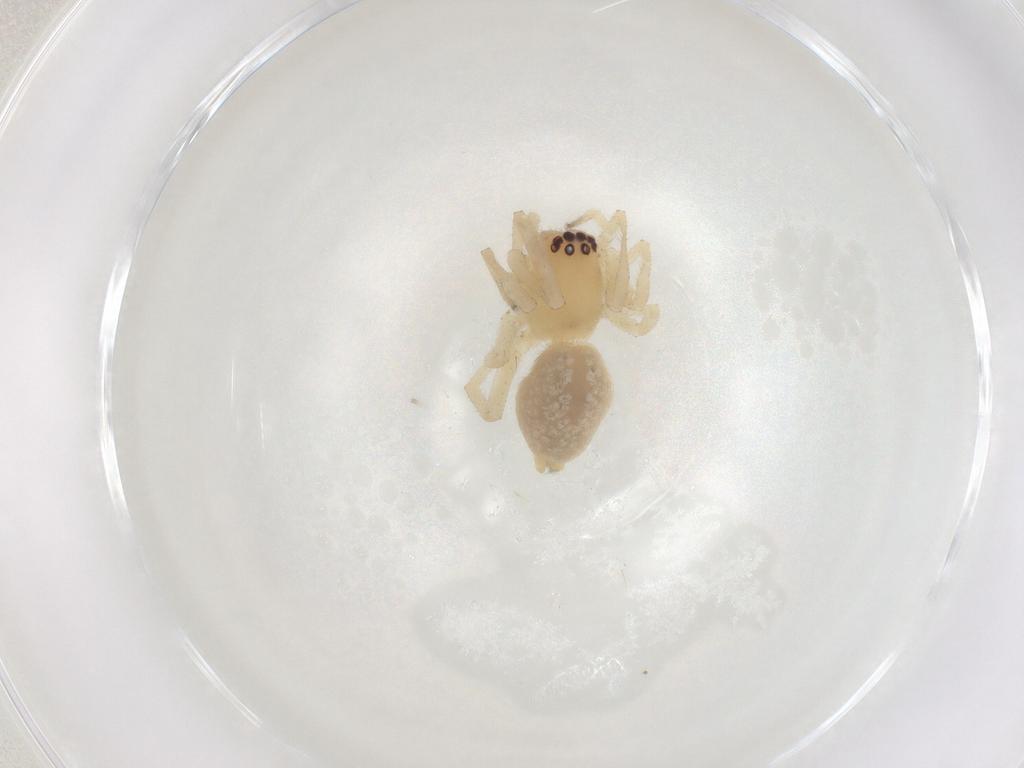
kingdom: Animalia
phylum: Arthropoda
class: Arachnida
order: Araneae
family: Cheiracanthiidae
